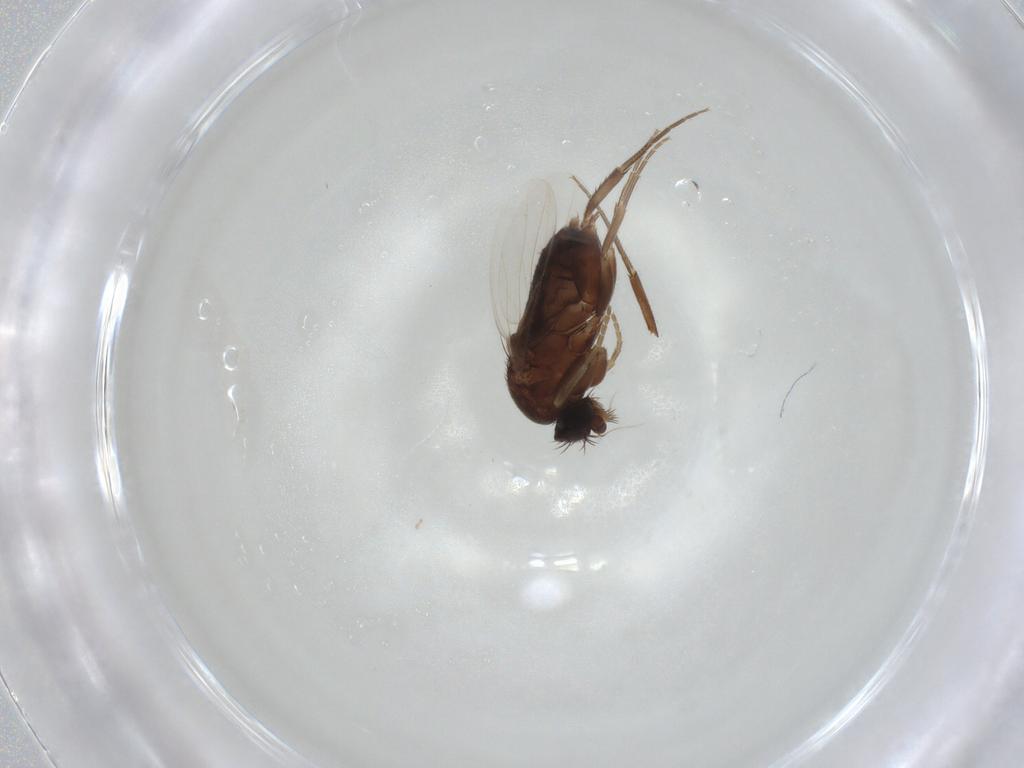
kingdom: Animalia
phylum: Arthropoda
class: Insecta
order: Diptera
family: Phoridae
